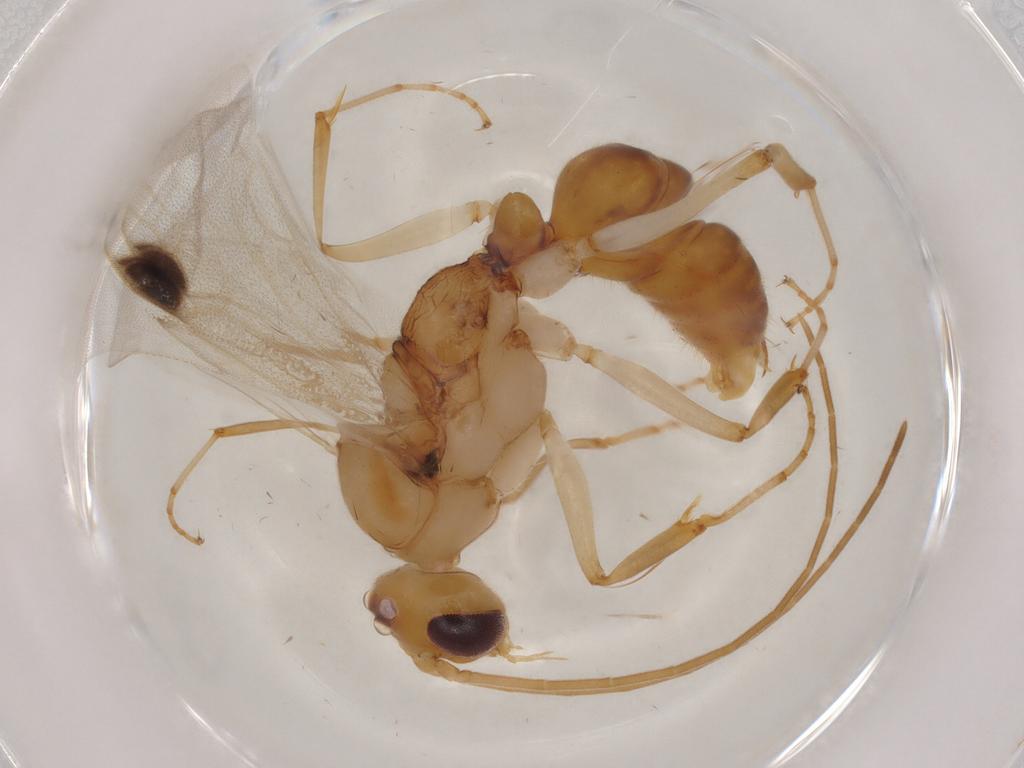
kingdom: Animalia
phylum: Arthropoda
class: Insecta
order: Hymenoptera
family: Formicidae
